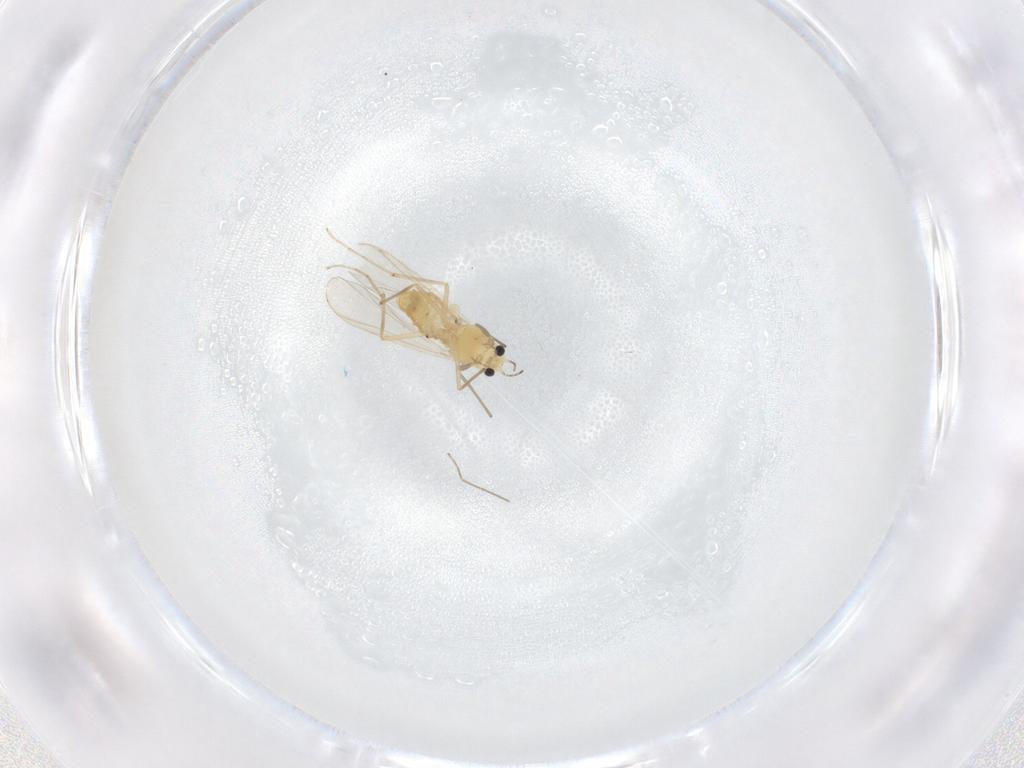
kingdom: Animalia
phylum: Arthropoda
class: Insecta
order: Diptera
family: Chironomidae
